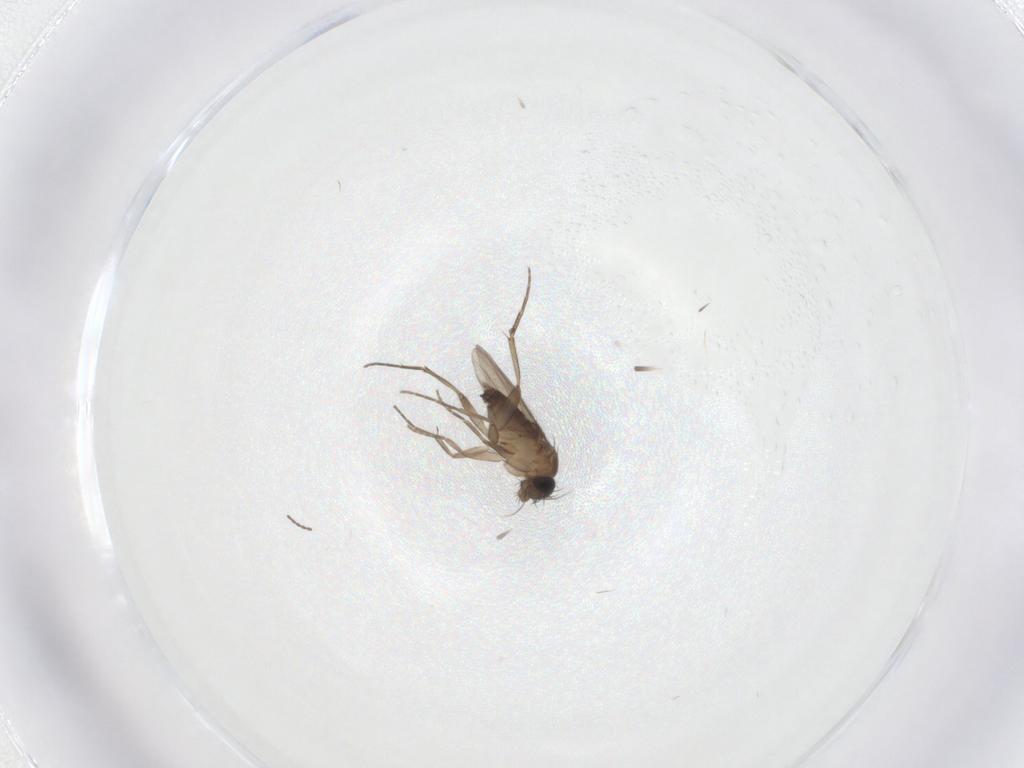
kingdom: Animalia
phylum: Arthropoda
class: Insecta
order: Diptera
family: Phoridae
